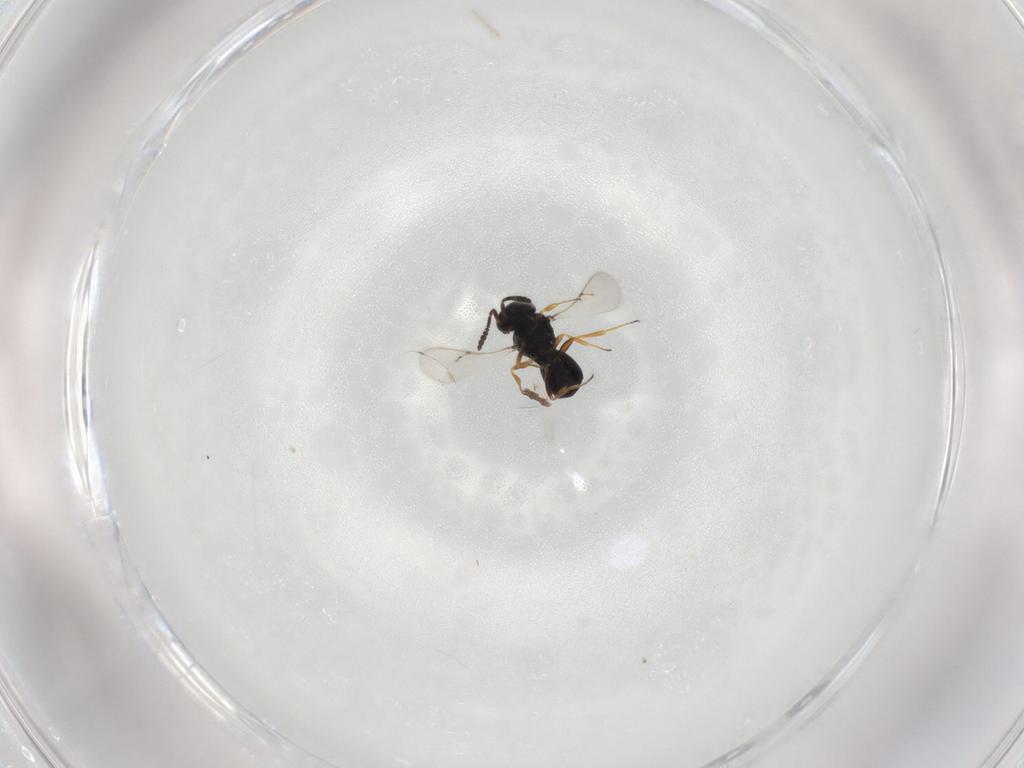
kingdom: Animalia
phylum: Arthropoda
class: Insecta
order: Hymenoptera
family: Scelionidae
